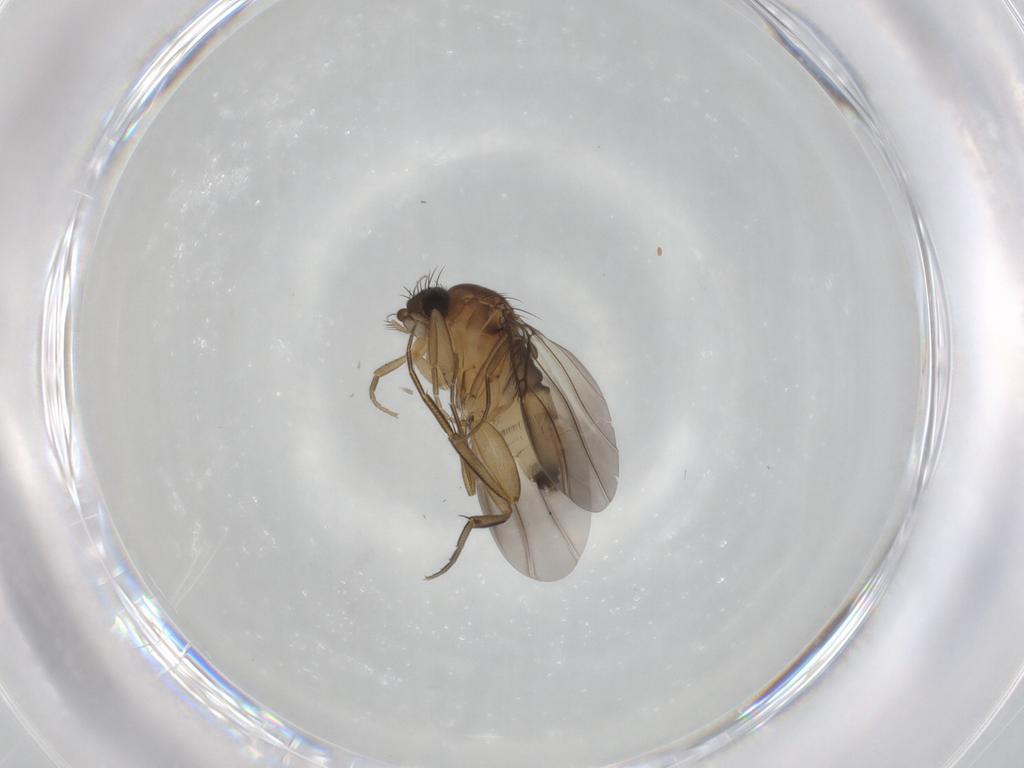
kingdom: Animalia
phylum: Arthropoda
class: Insecta
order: Diptera
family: Phoridae
